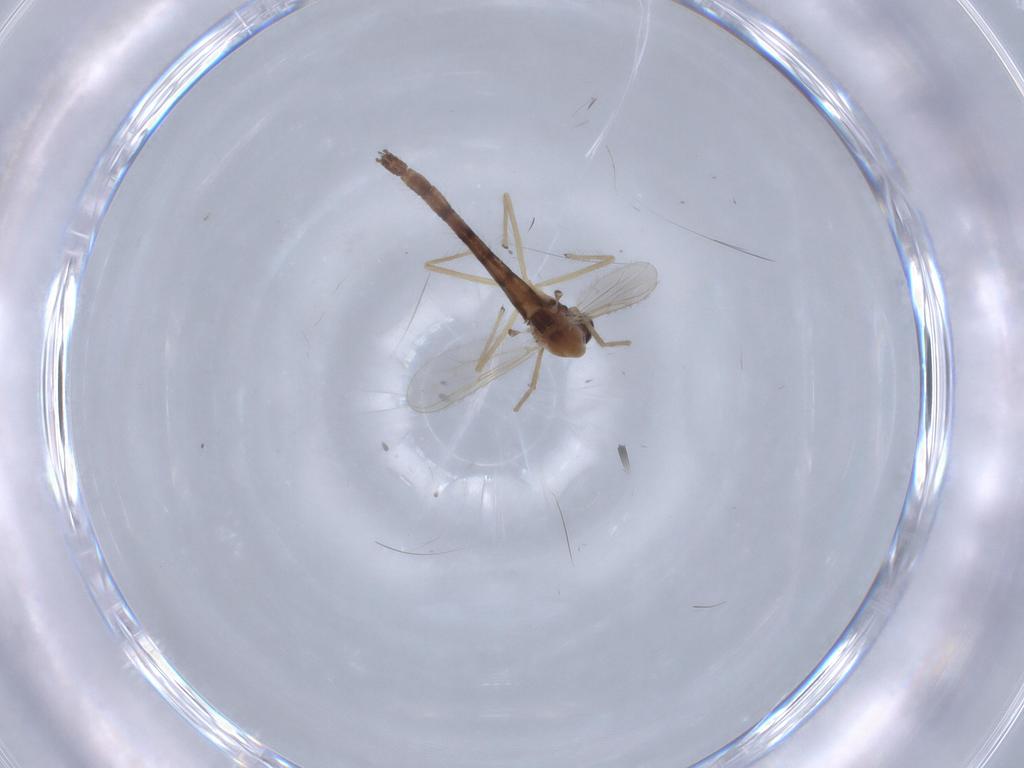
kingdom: Animalia
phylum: Arthropoda
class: Insecta
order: Diptera
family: Chironomidae
